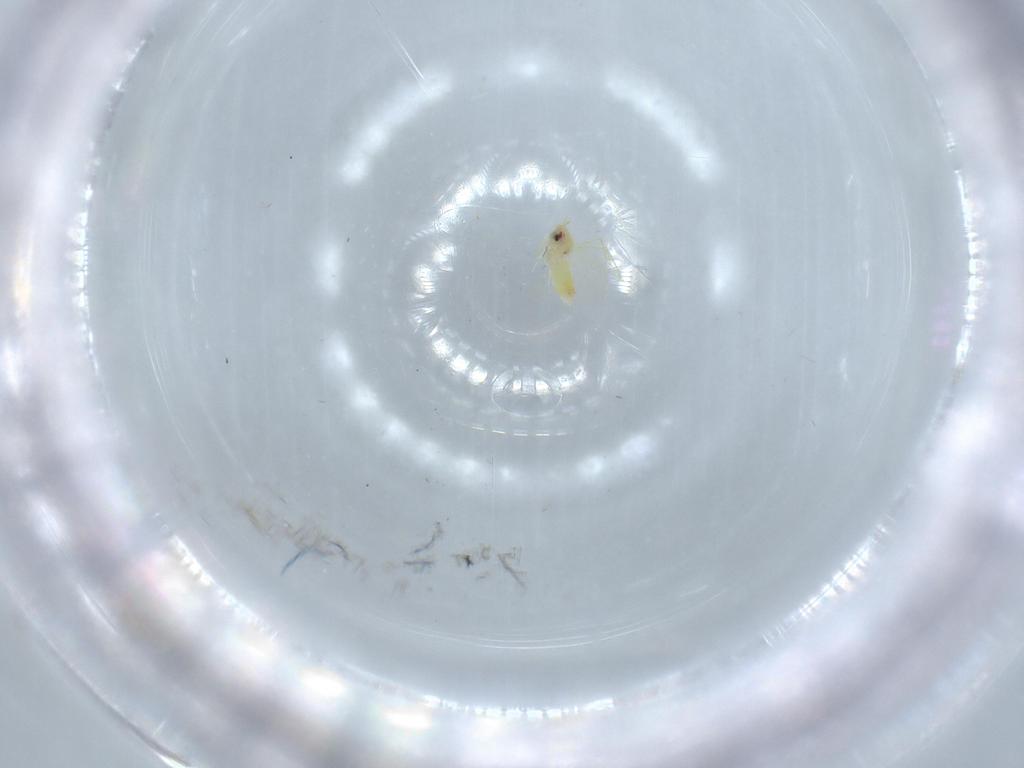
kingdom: Animalia
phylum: Arthropoda
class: Insecta
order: Hemiptera
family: Aleyrodidae
